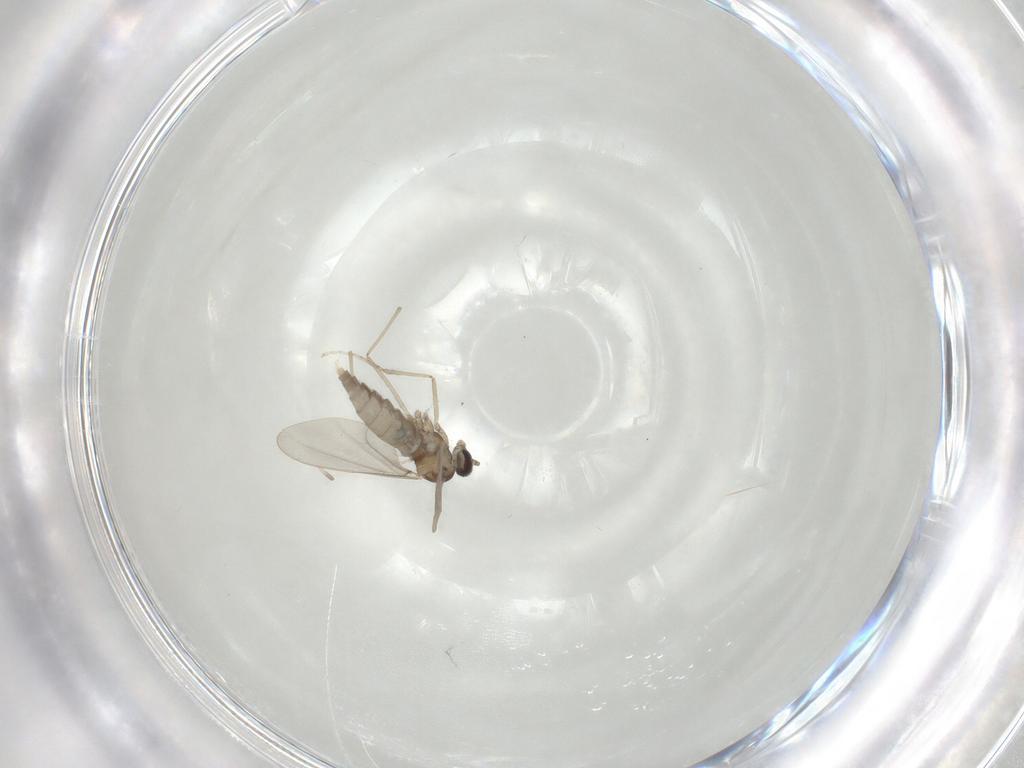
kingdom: Animalia
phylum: Arthropoda
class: Insecta
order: Diptera
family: Cecidomyiidae
